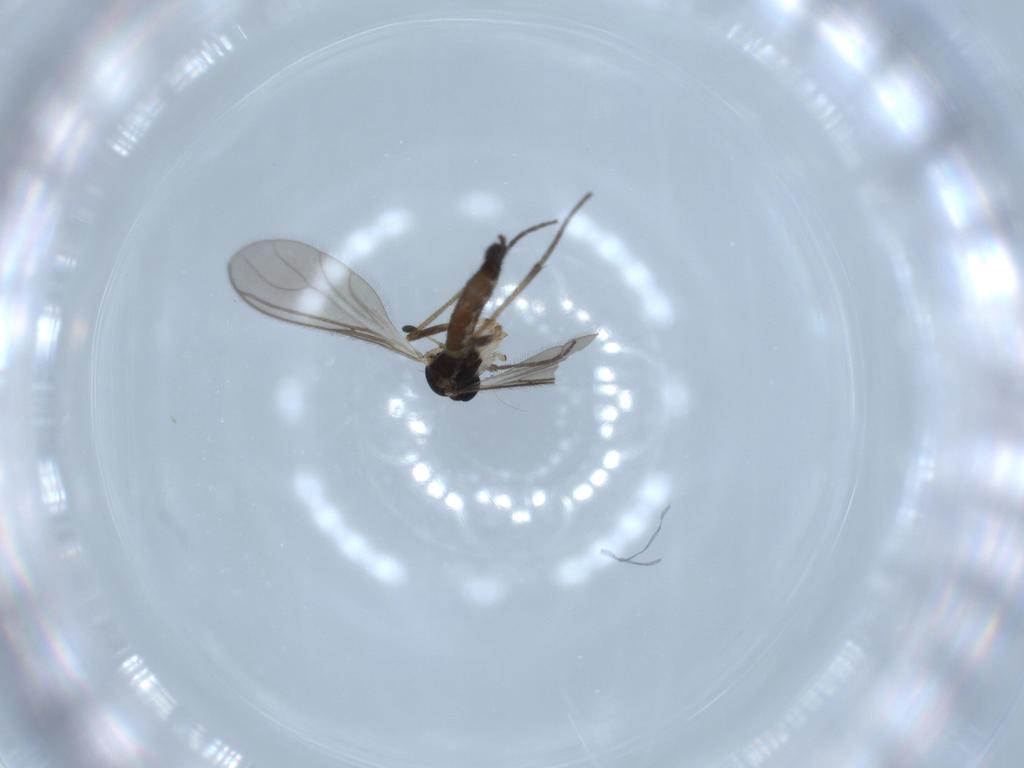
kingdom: Animalia
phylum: Arthropoda
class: Insecta
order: Diptera
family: Sciaridae
